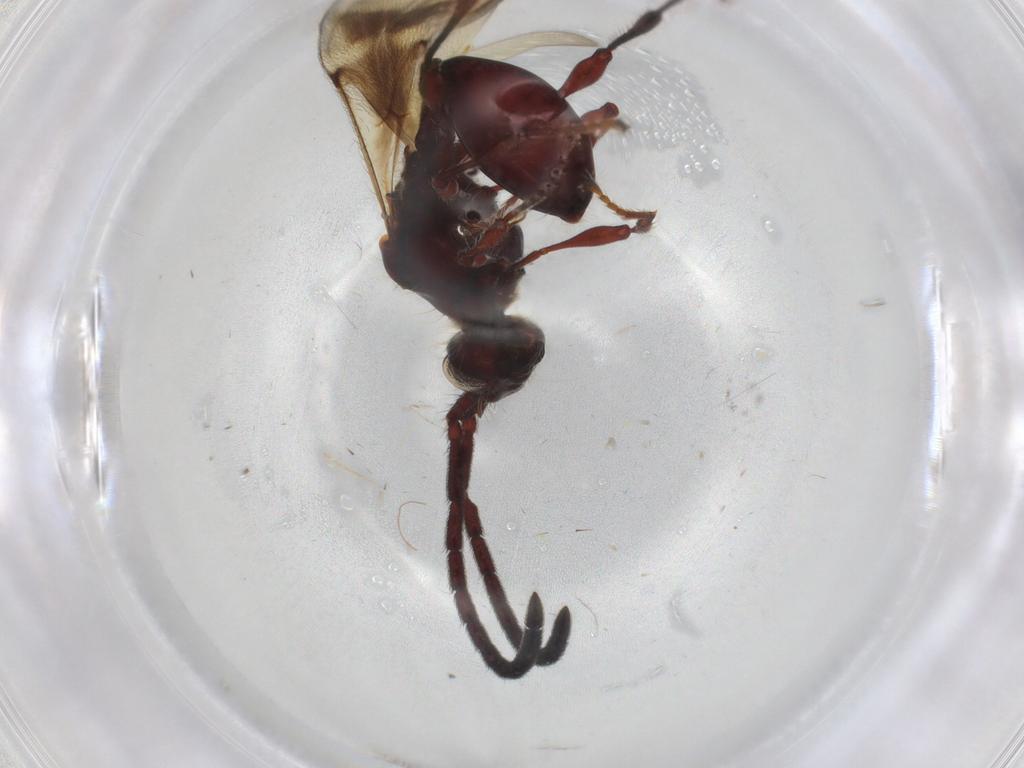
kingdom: Animalia
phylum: Arthropoda
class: Insecta
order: Hymenoptera
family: Diapriidae
